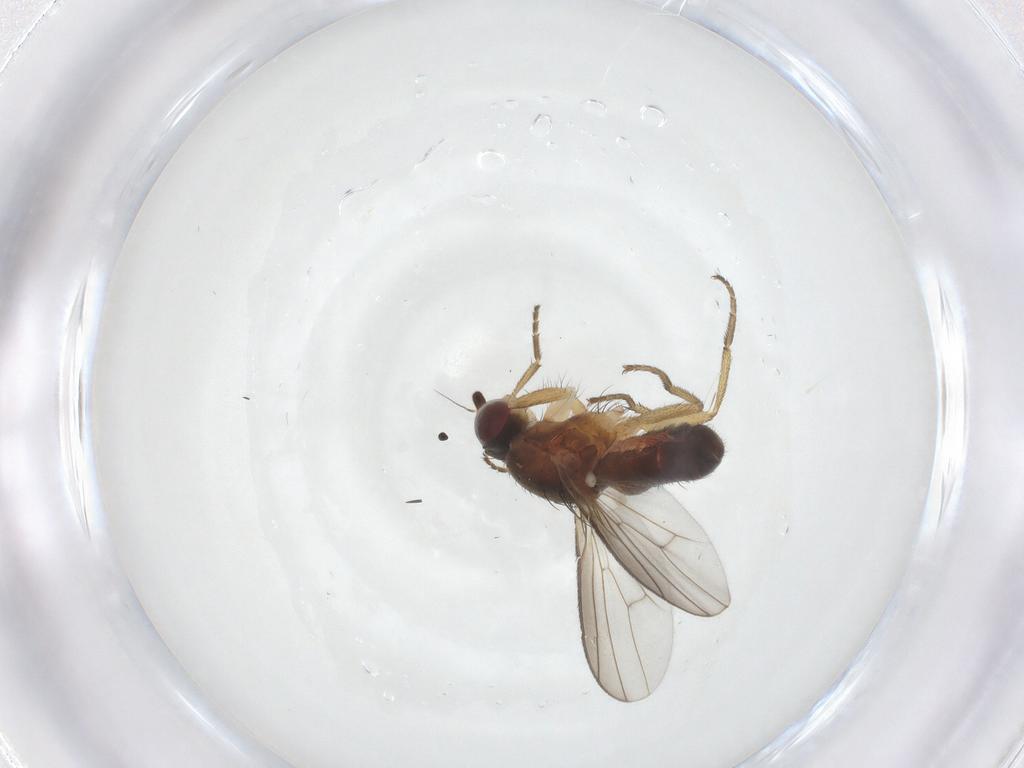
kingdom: Animalia
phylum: Arthropoda
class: Insecta
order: Diptera
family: Heleomyzidae
